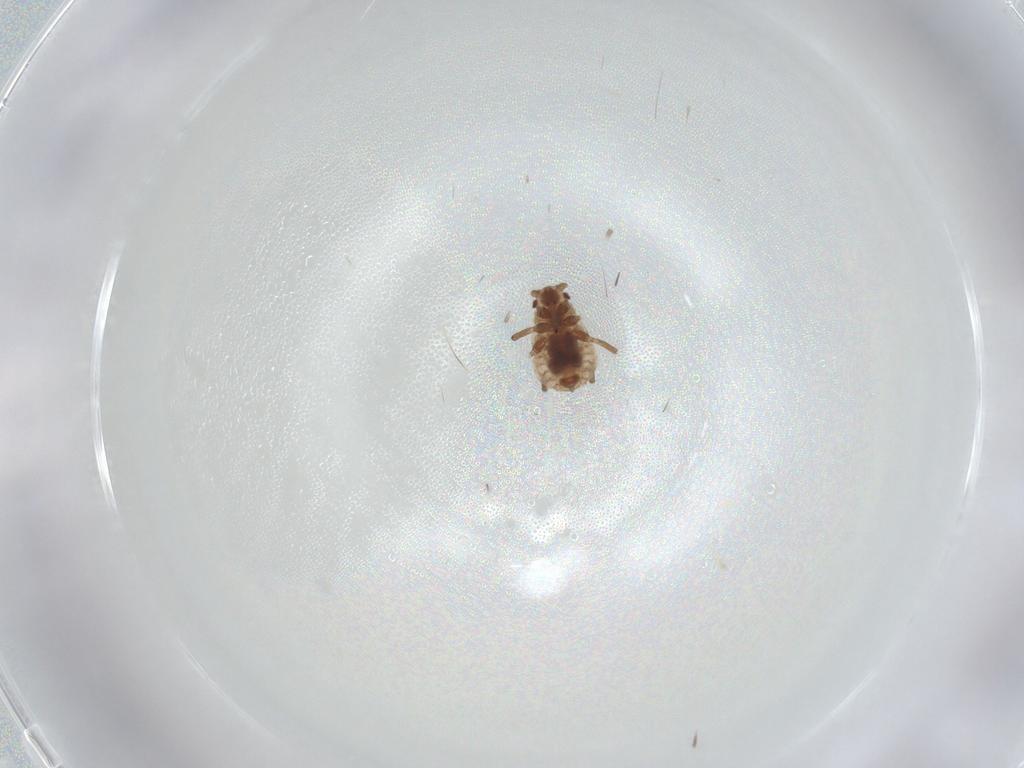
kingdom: Animalia
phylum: Arthropoda
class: Insecta
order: Hemiptera
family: Aphididae
